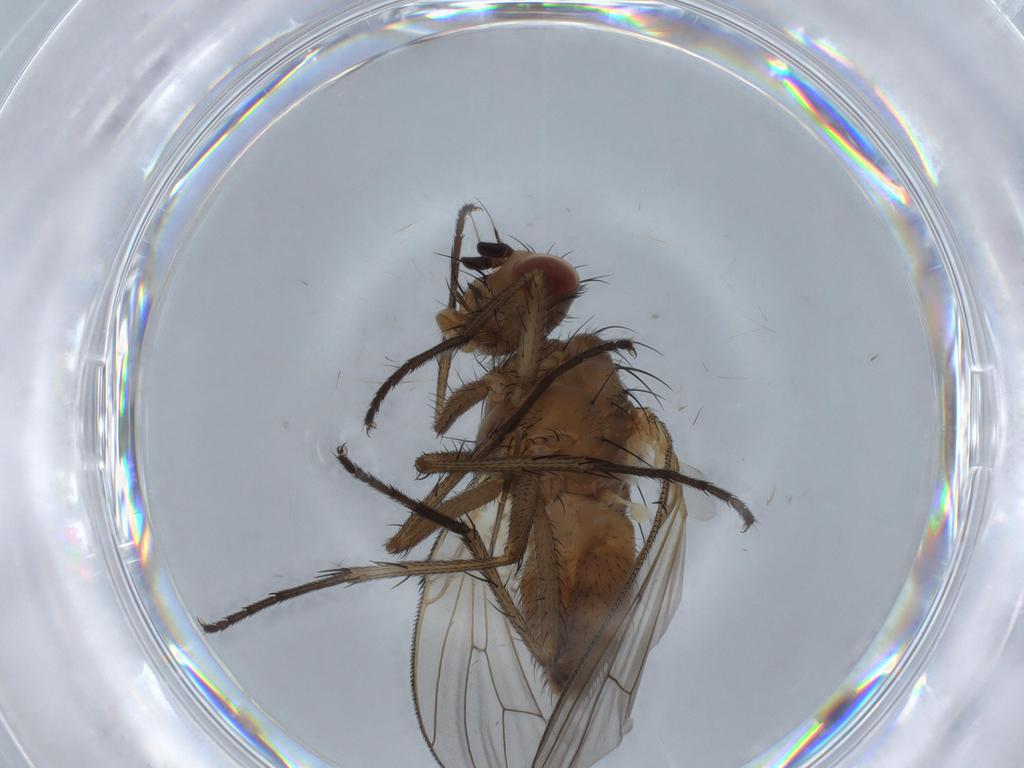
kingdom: Animalia
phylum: Arthropoda
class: Insecta
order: Diptera
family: Anthomyiidae
